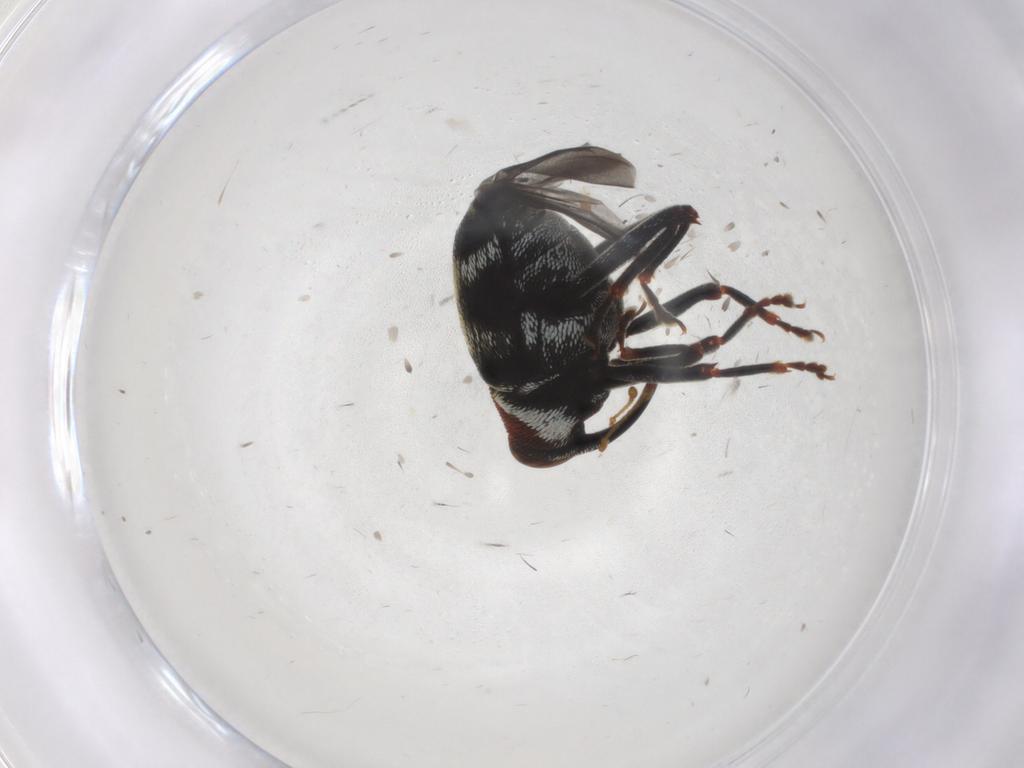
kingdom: Animalia
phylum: Arthropoda
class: Insecta
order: Coleoptera
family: Curculionidae
